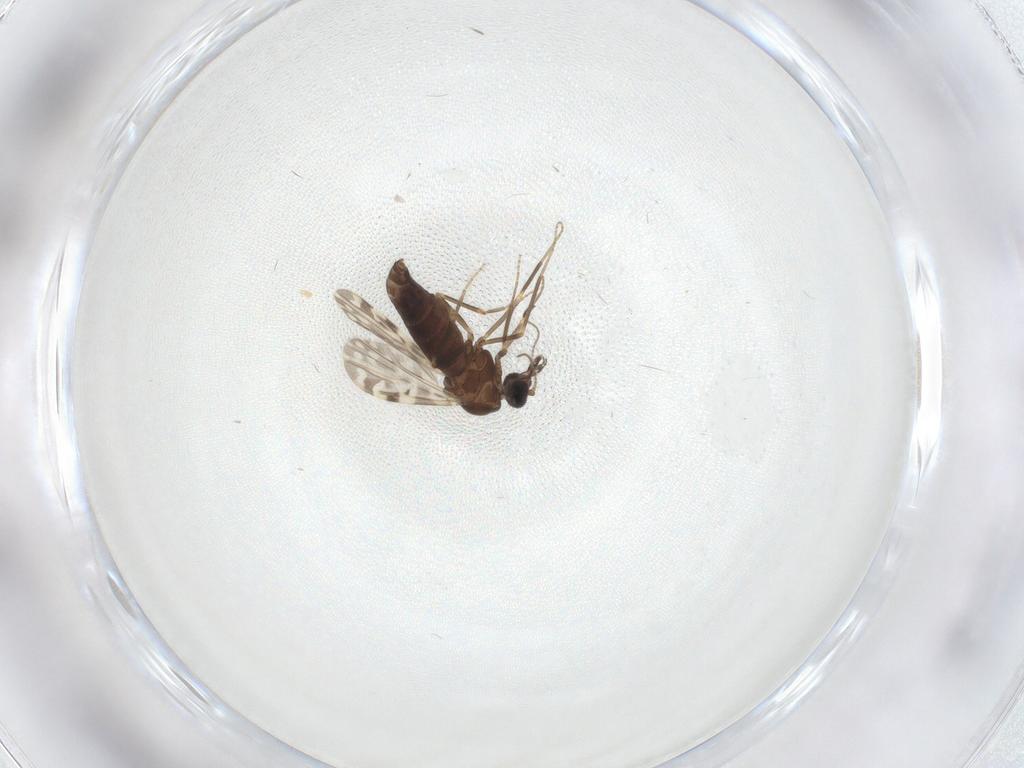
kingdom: Animalia
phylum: Arthropoda
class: Insecta
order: Diptera
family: Ceratopogonidae
